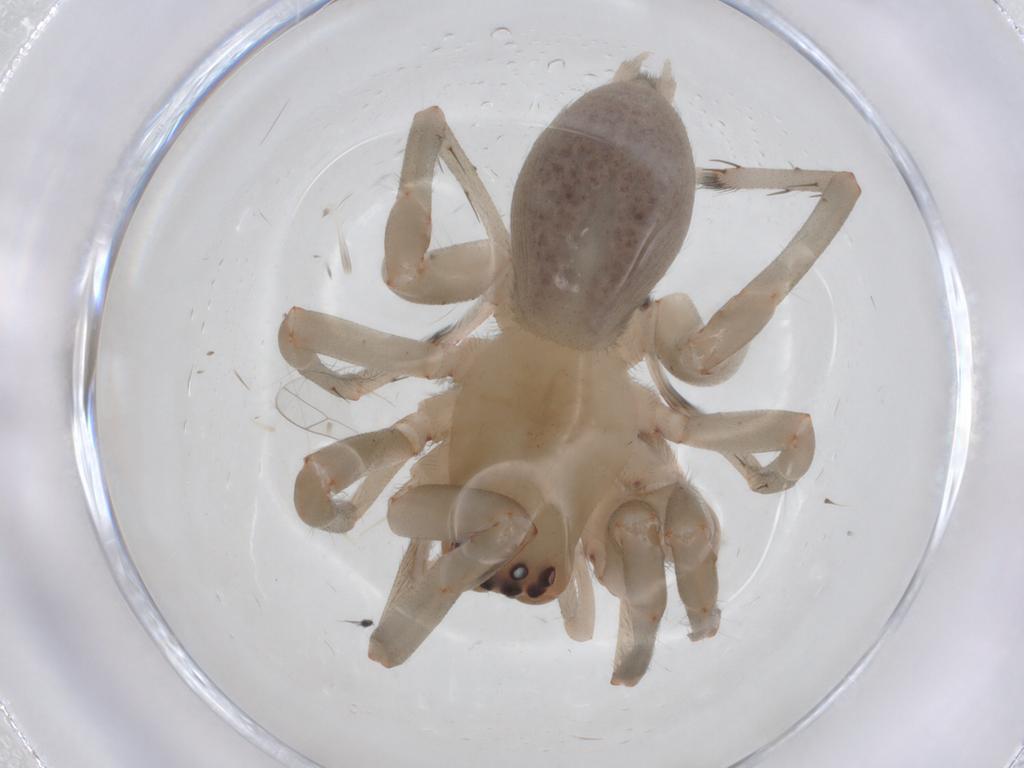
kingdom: Animalia
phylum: Arthropoda
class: Arachnida
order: Araneae
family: Cheiracanthiidae
